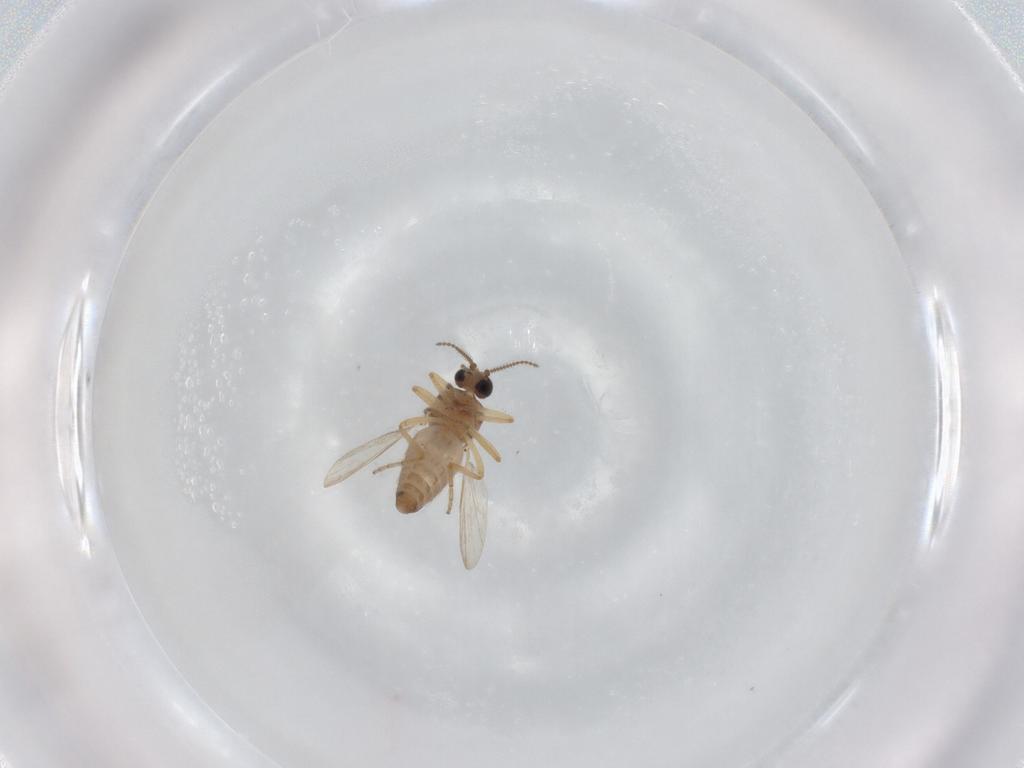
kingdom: Animalia
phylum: Arthropoda
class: Insecta
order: Diptera
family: Ceratopogonidae
